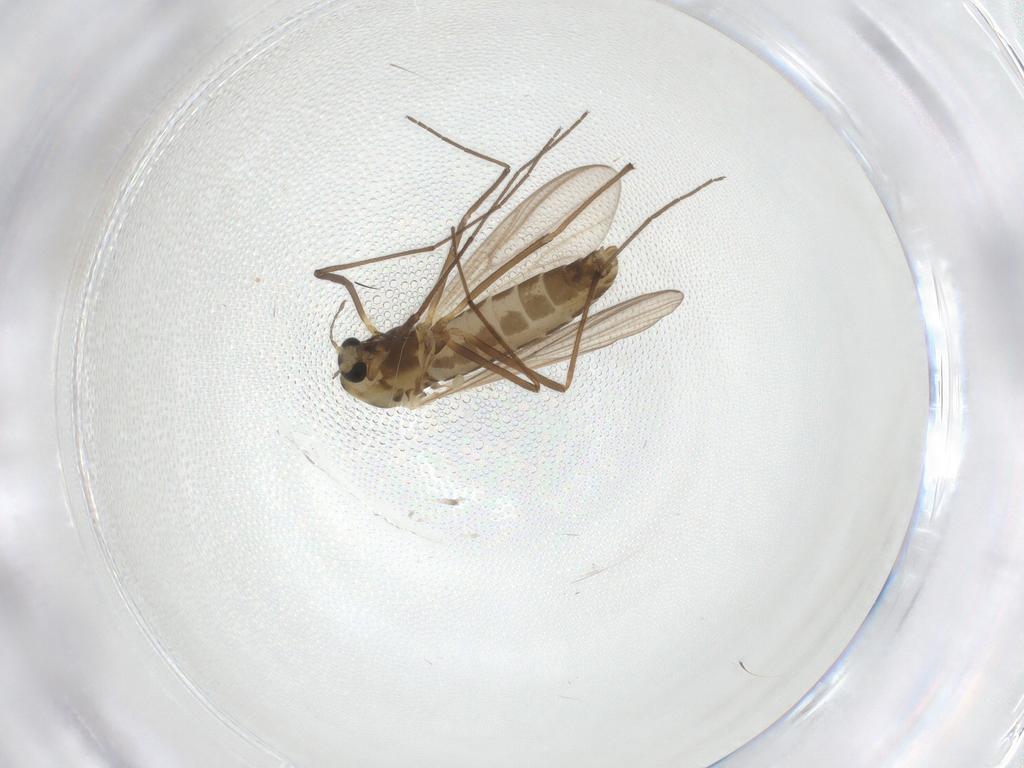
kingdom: Animalia
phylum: Arthropoda
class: Insecta
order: Diptera
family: Chironomidae
